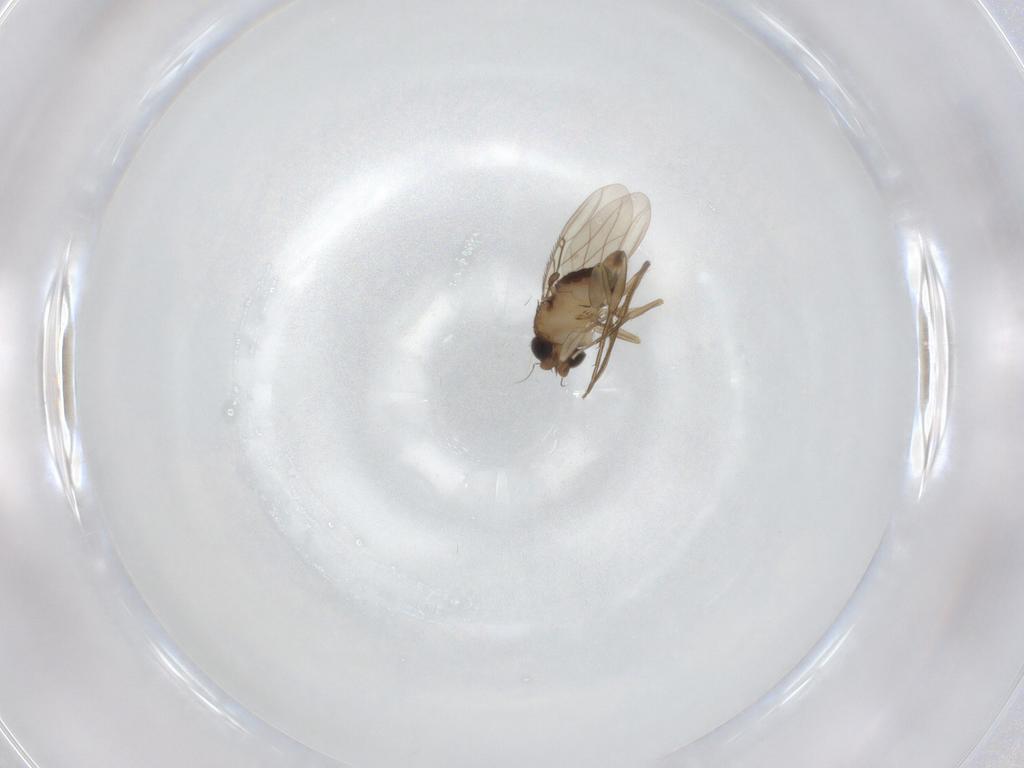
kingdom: Animalia
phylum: Arthropoda
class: Insecta
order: Diptera
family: Phoridae
